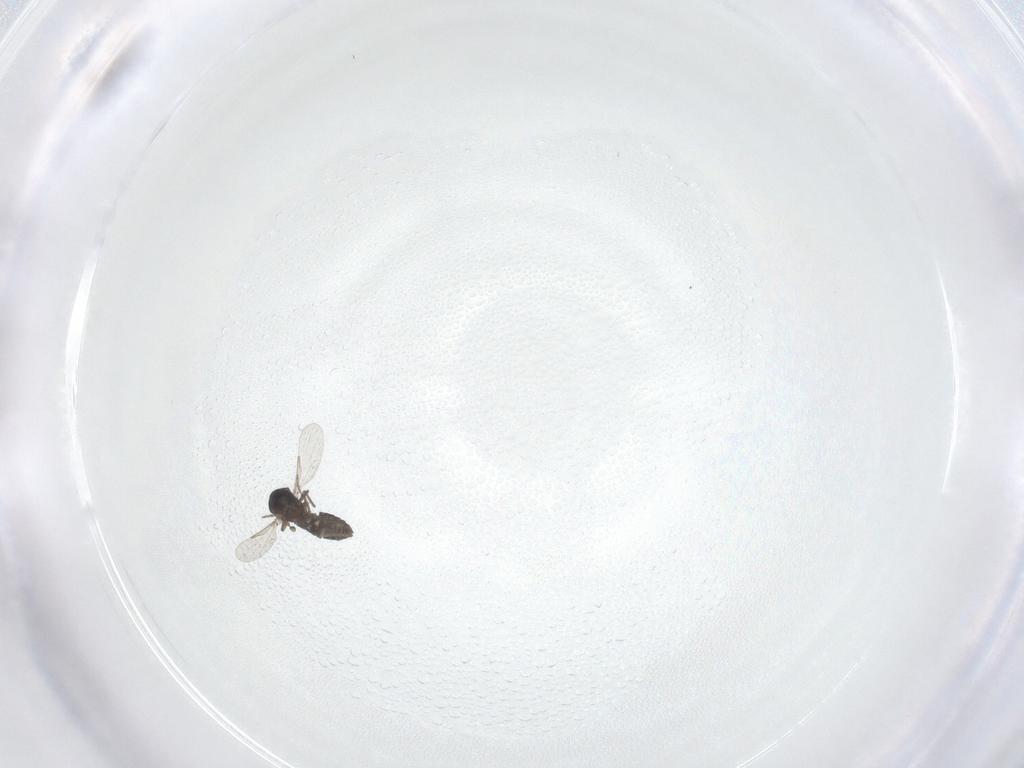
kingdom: Animalia
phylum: Arthropoda
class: Insecta
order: Diptera
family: Ceratopogonidae
